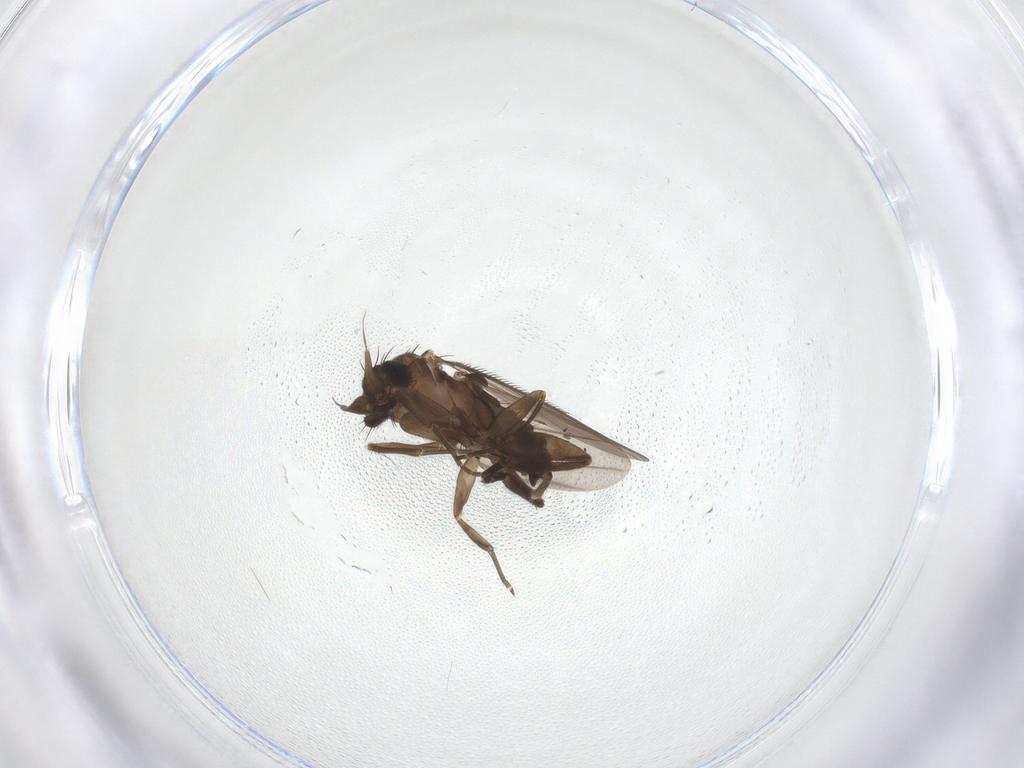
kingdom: Animalia
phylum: Arthropoda
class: Insecta
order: Diptera
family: Phoridae
